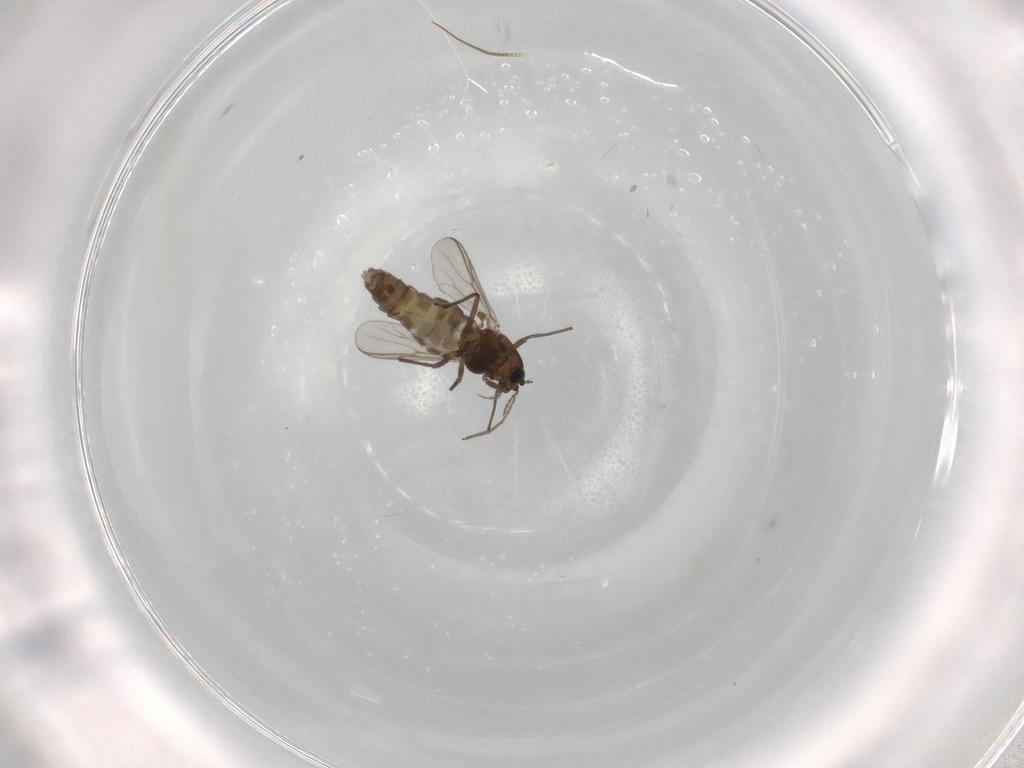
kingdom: Animalia
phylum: Arthropoda
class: Insecta
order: Diptera
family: Chironomidae
